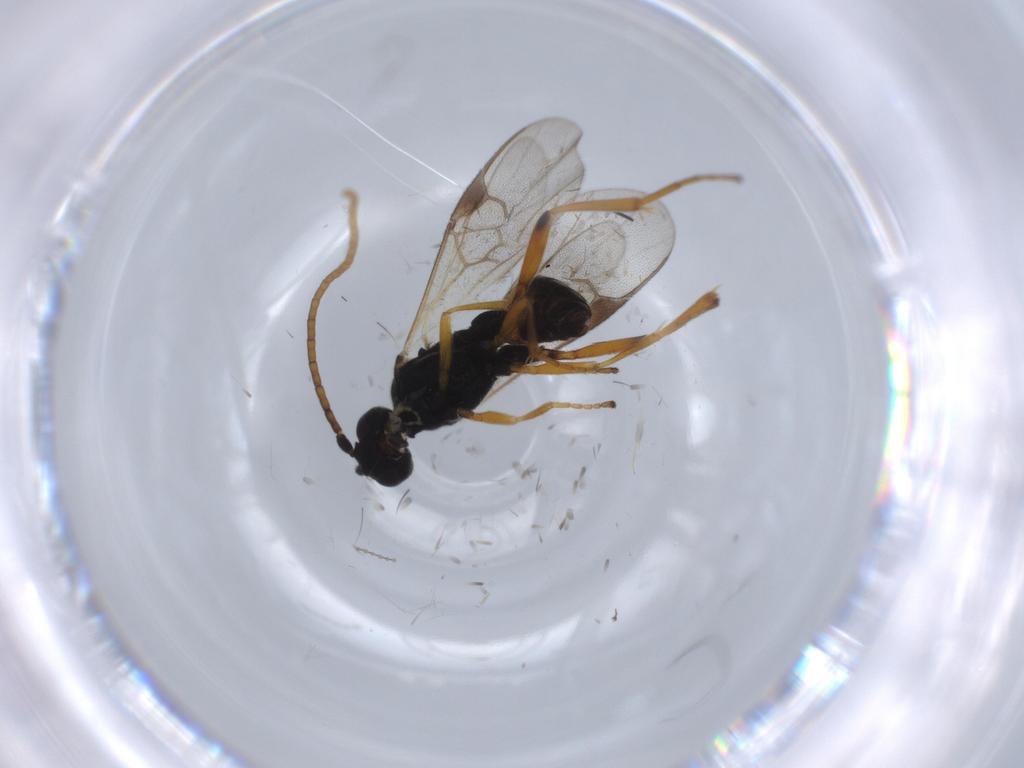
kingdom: Animalia
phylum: Arthropoda
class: Insecta
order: Hymenoptera
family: Braconidae
